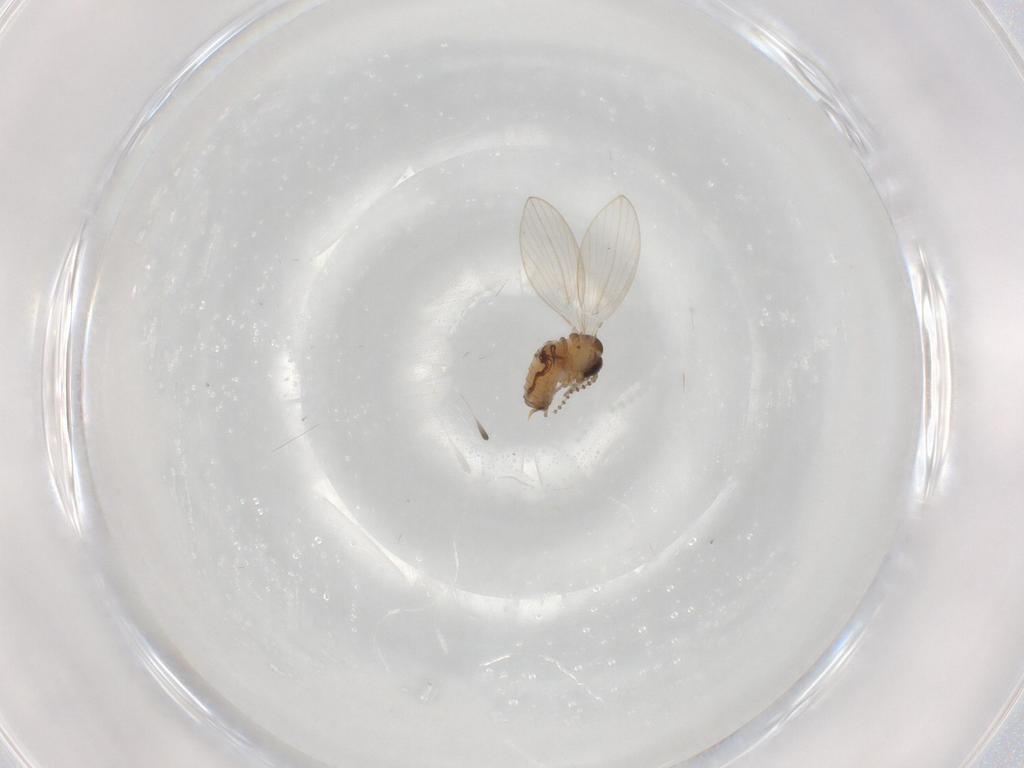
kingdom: Animalia
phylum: Arthropoda
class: Insecta
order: Diptera
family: Psychodidae
